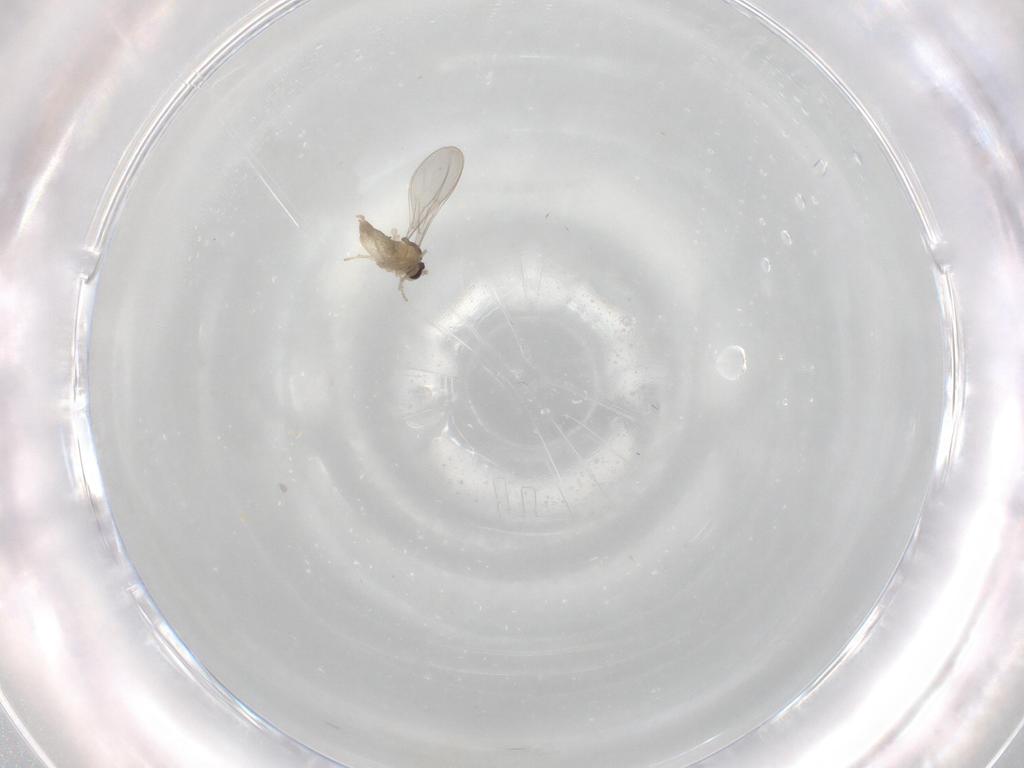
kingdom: Animalia
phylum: Arthropoda
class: Insecta
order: Diptera
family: Cecidomyiidae
